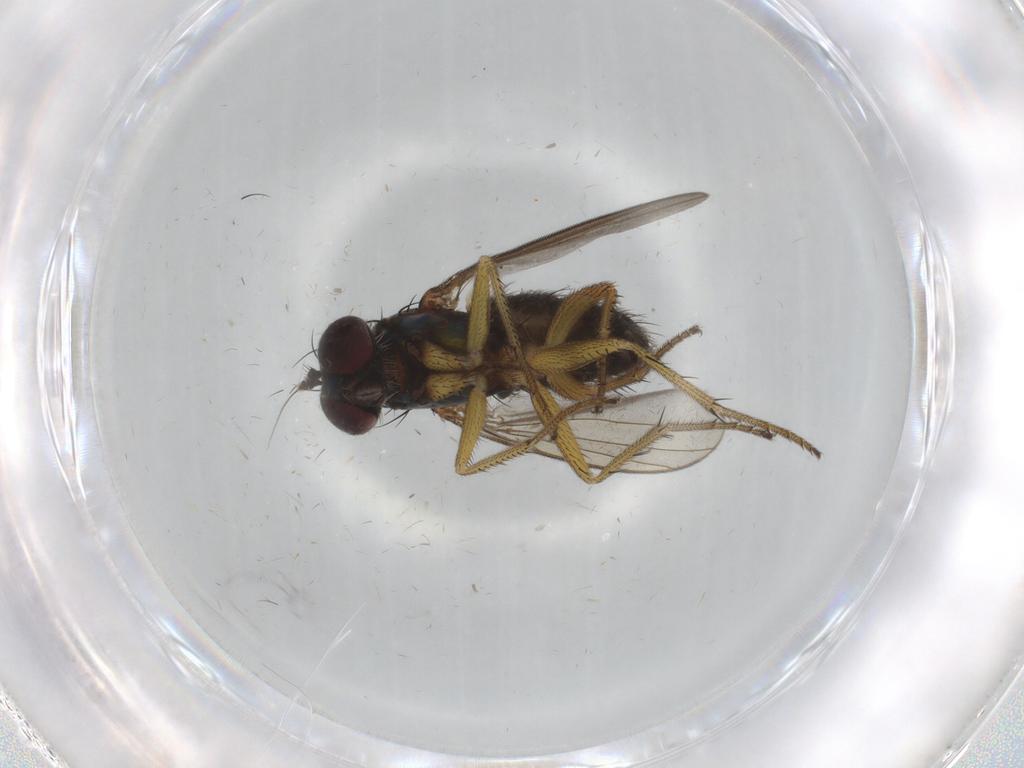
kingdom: Animalia
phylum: Arthropoda
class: Insecta
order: Diptera
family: Dolichopodidae
